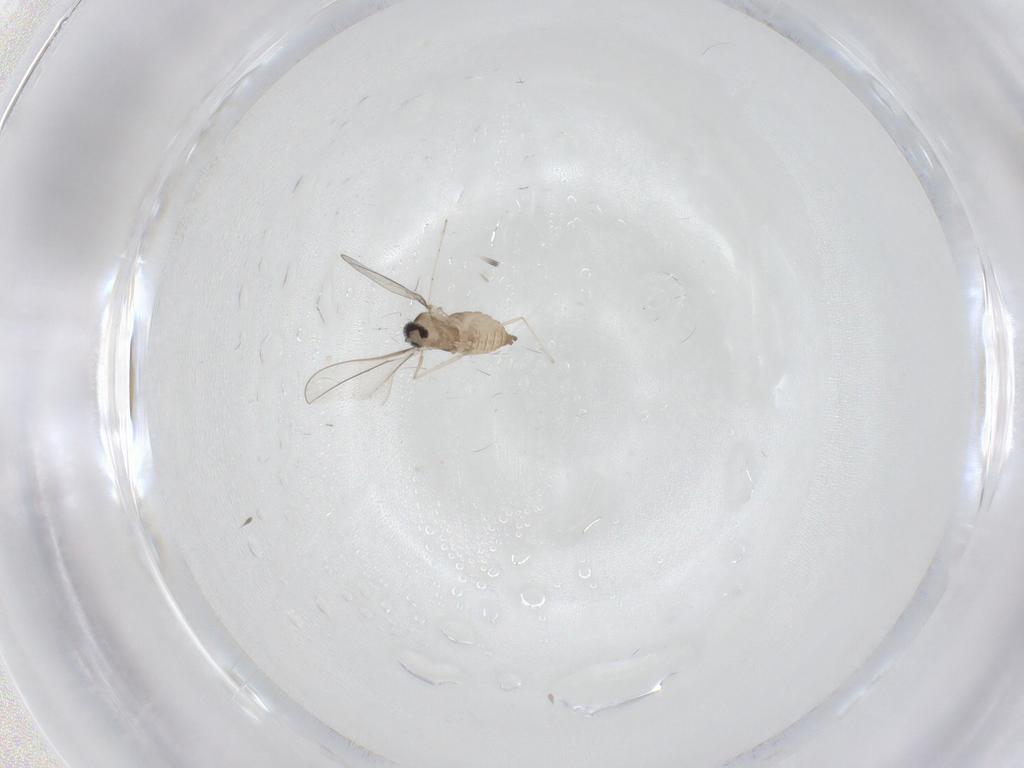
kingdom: Animalia
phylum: Arthropoda
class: Insecta
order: Diptera
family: Cecidomyiidae
